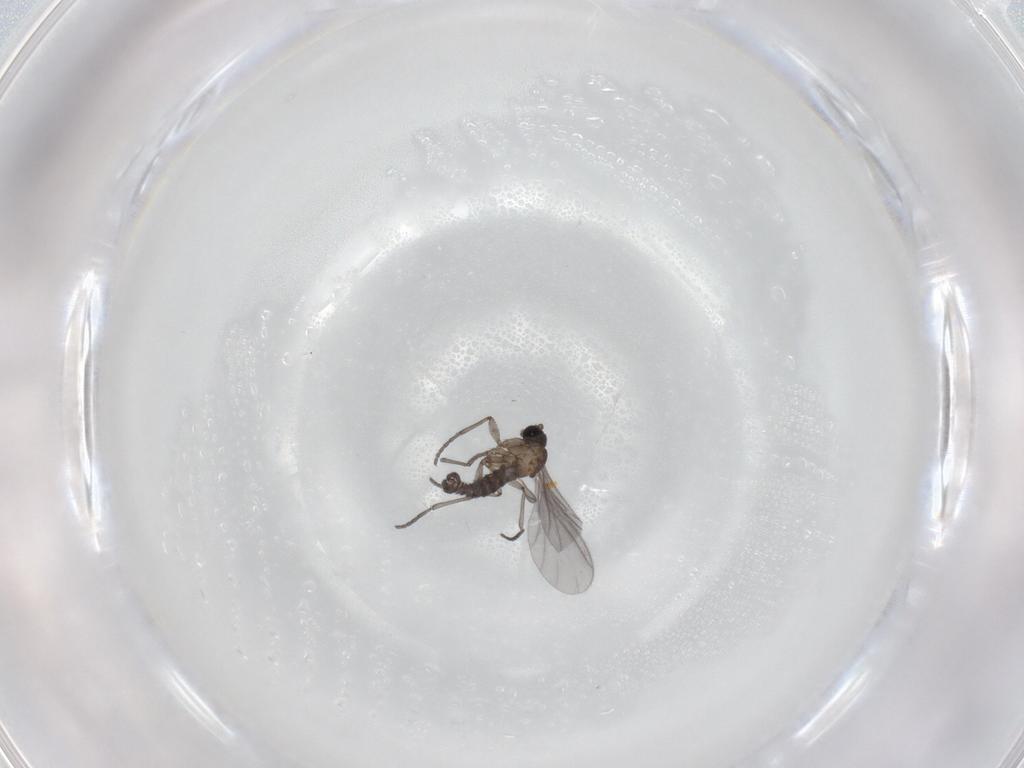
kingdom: Animalia
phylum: Arthropoda
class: Insecta
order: Diptera
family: Sciaridae
